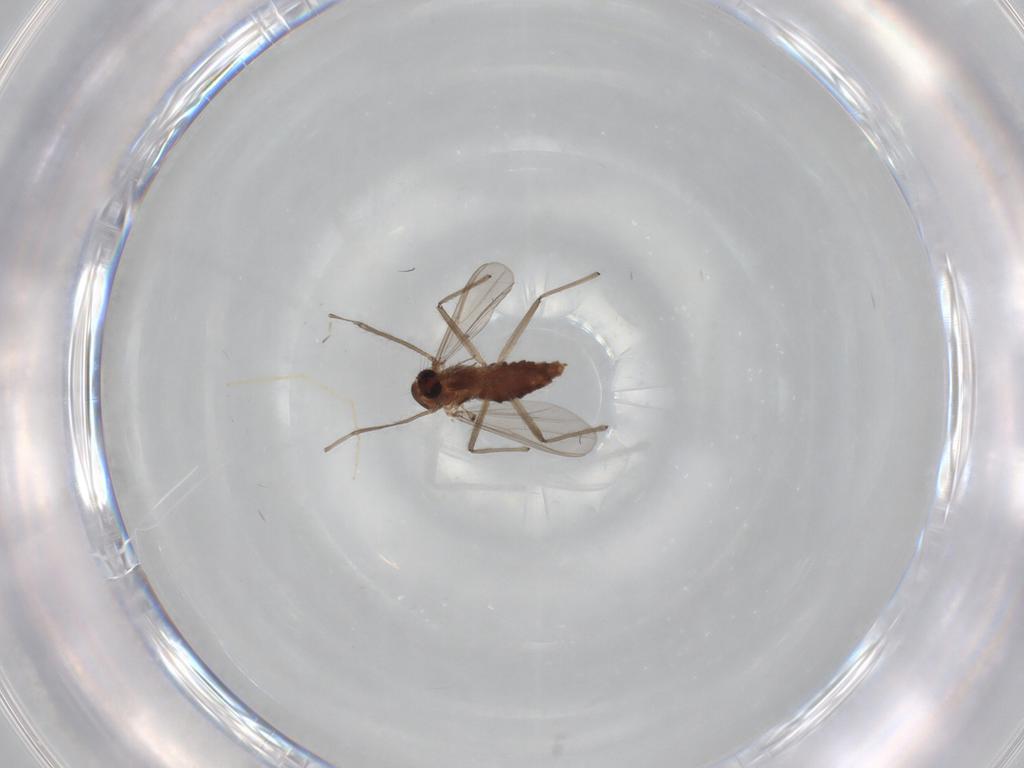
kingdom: Animalia
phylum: Arthropoda
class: Insecta
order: Diptera
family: Chironomidae
